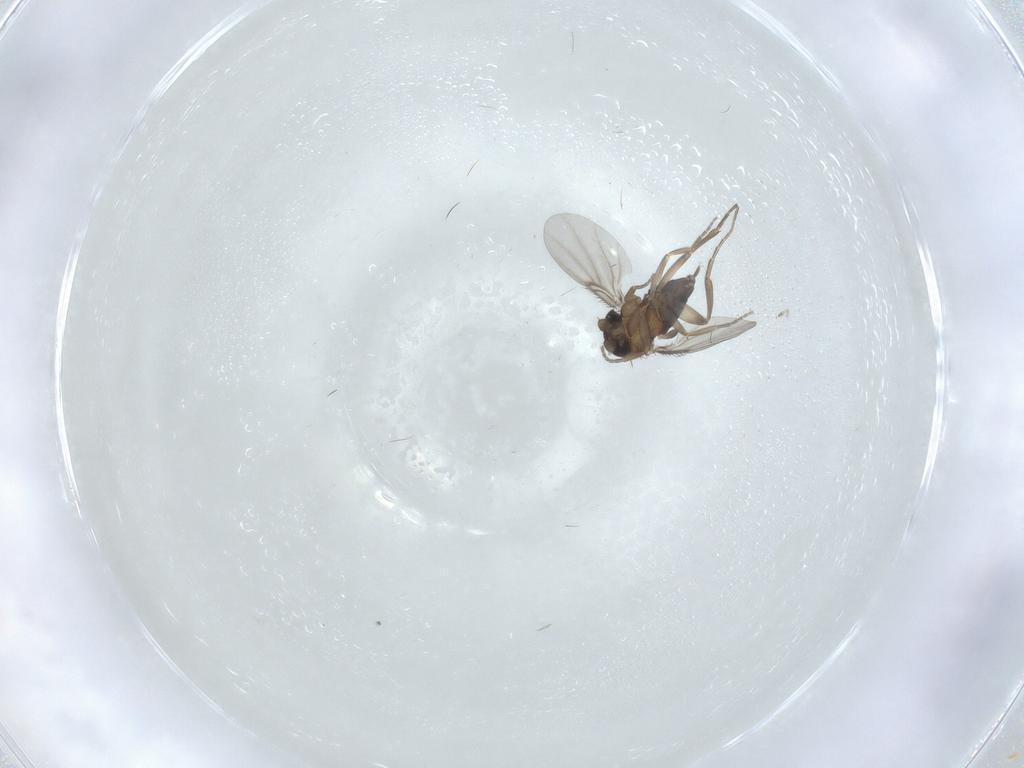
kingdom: Animalia
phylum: Arthropoda
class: Insecta
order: Diptera
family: Phoridae
